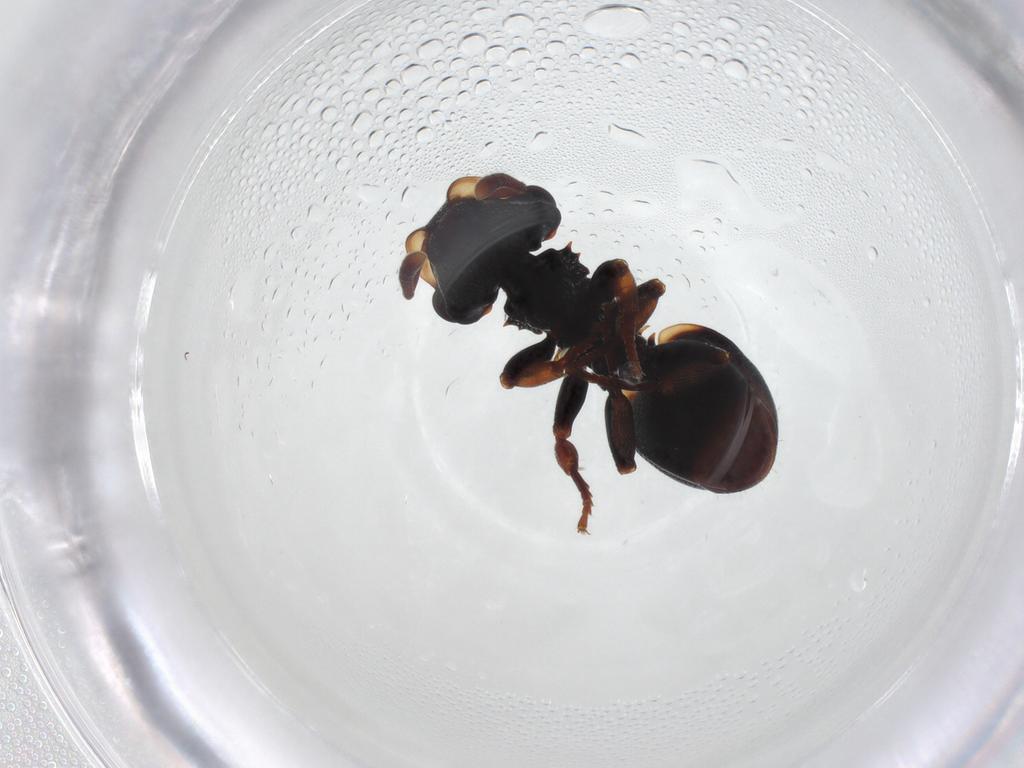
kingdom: Animalia
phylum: Arthropoda
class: Insecta
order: Hymenoptera
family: Formicidae
